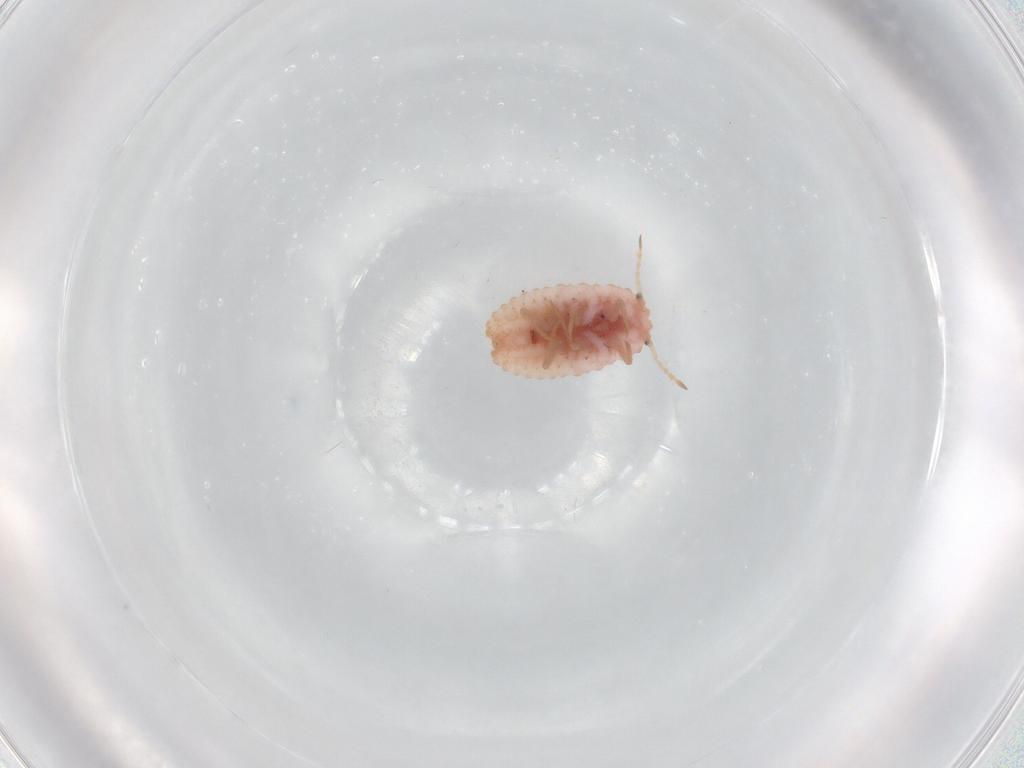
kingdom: Animalia
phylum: Arthropoda
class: Insecta
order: Hemiptera
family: Coccoidea_incertae_sedis
